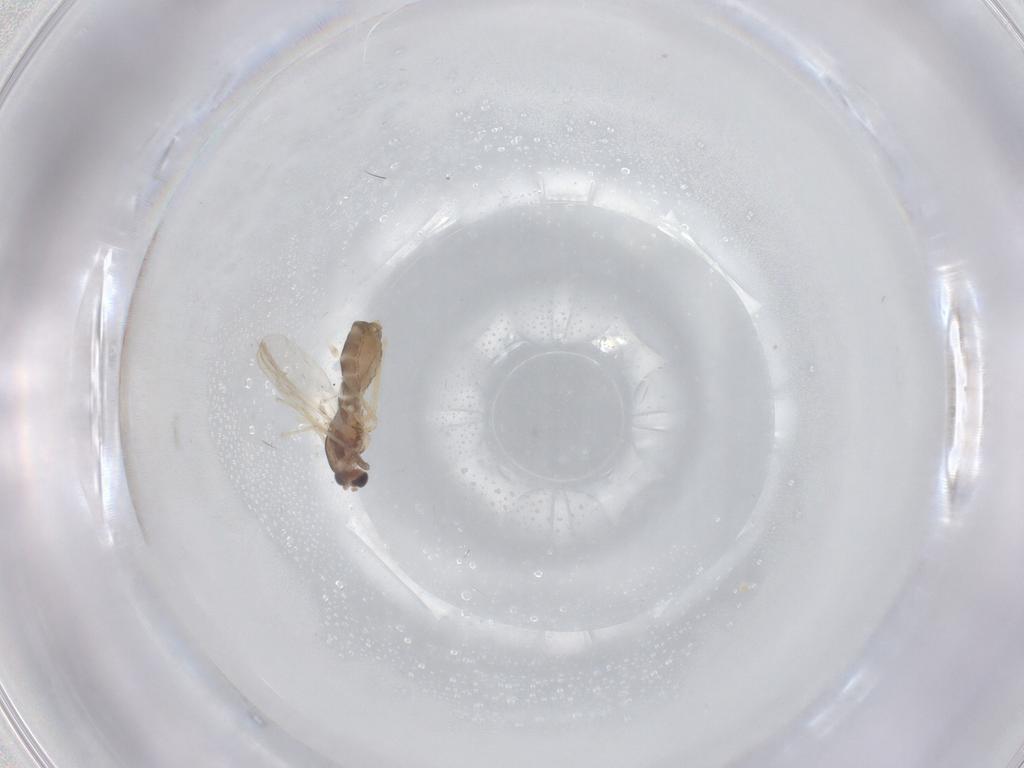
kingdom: Animalia
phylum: Arthropoda
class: Insecta
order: Diptera
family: Chironomidae
